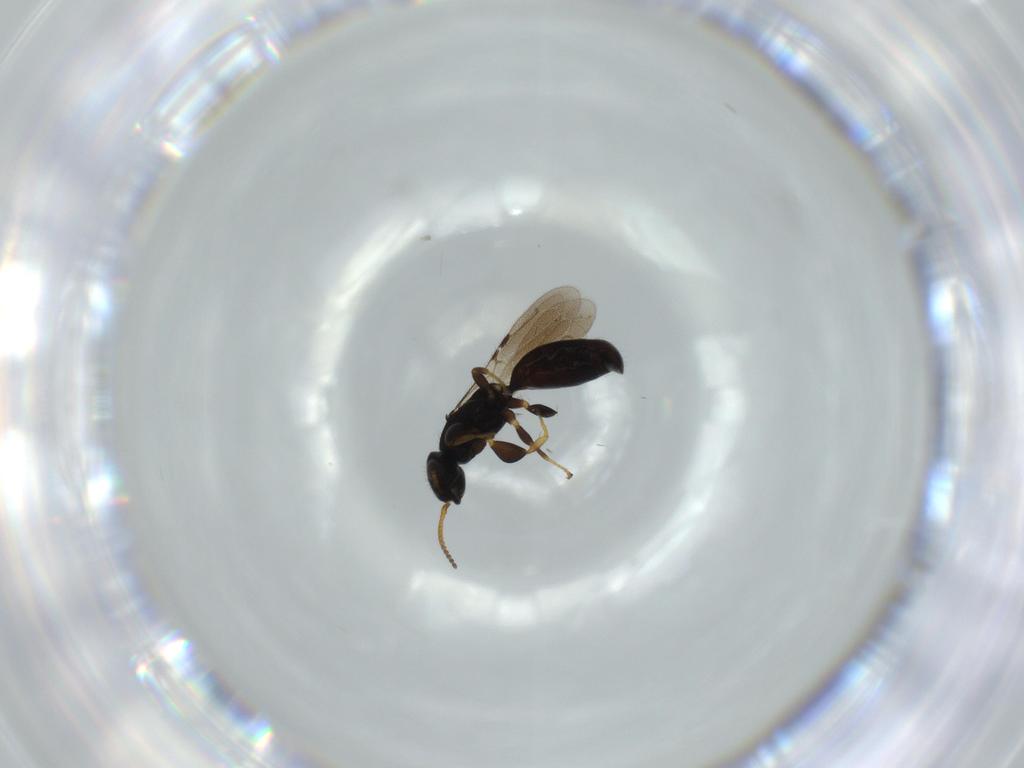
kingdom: Animalia
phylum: Arthropoda
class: Insecta
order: Hymenoptera
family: Bethylidae
